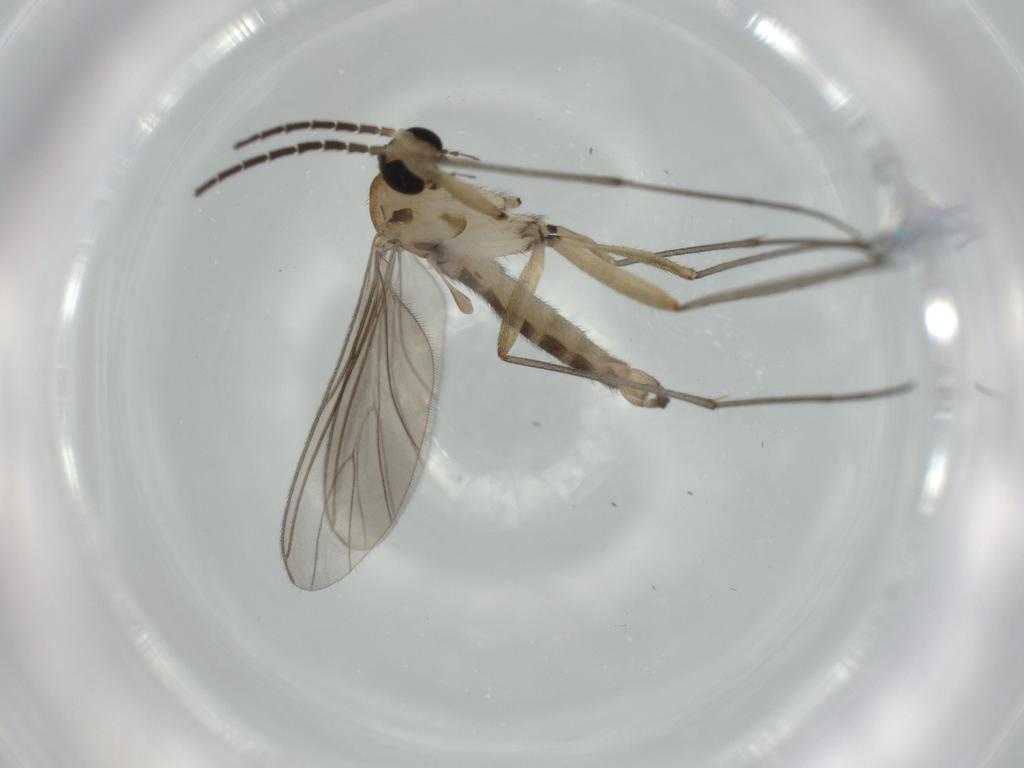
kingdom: Animalia
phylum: Arthropoda
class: Insecta
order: Diptera
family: Sciaridae
